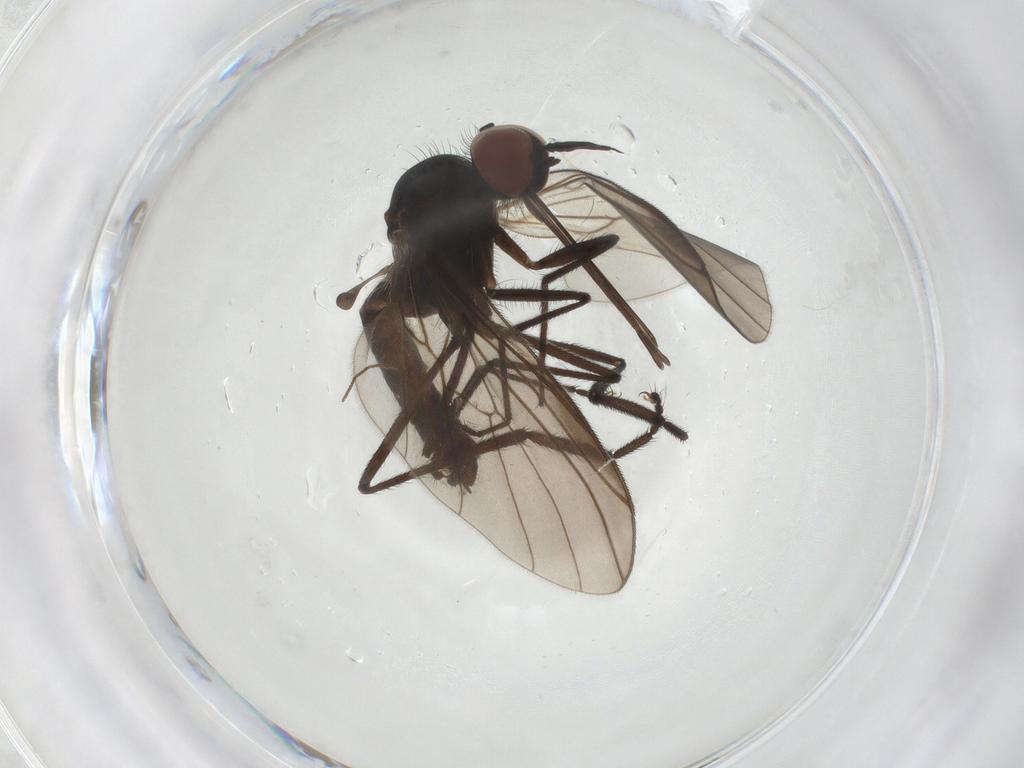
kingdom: Animalia
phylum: Arthropoda
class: Insecta
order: Diptera
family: Empididae
